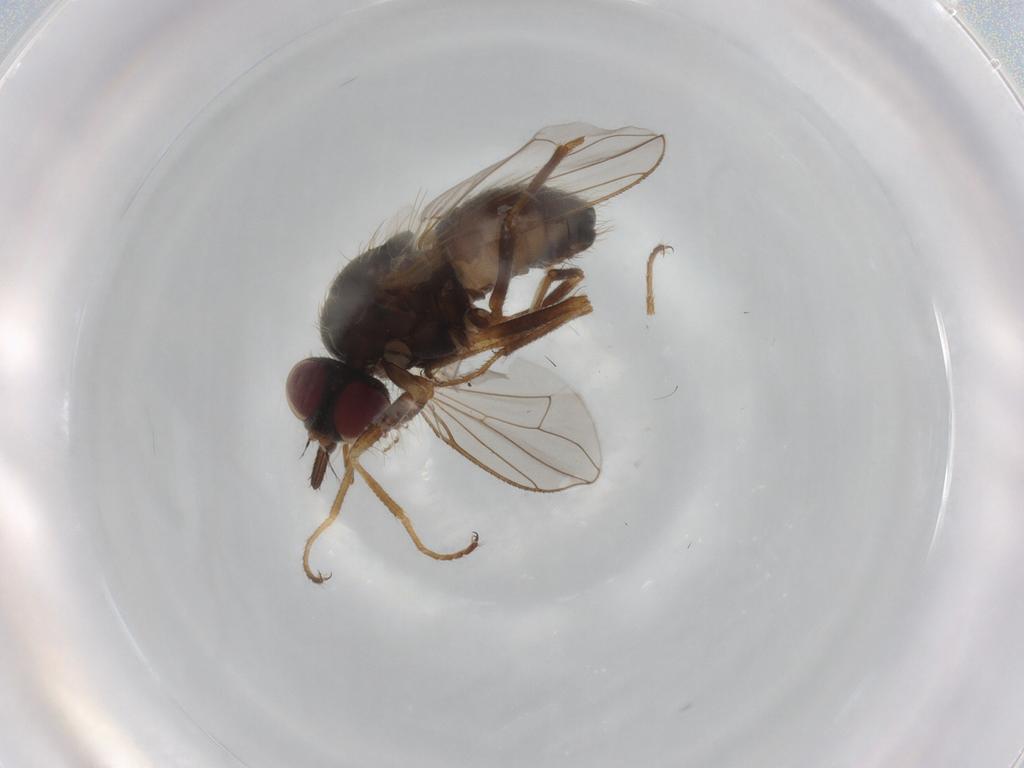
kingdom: Animalia
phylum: Arthropoda
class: Insecta
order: Diptera
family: Muscidae
